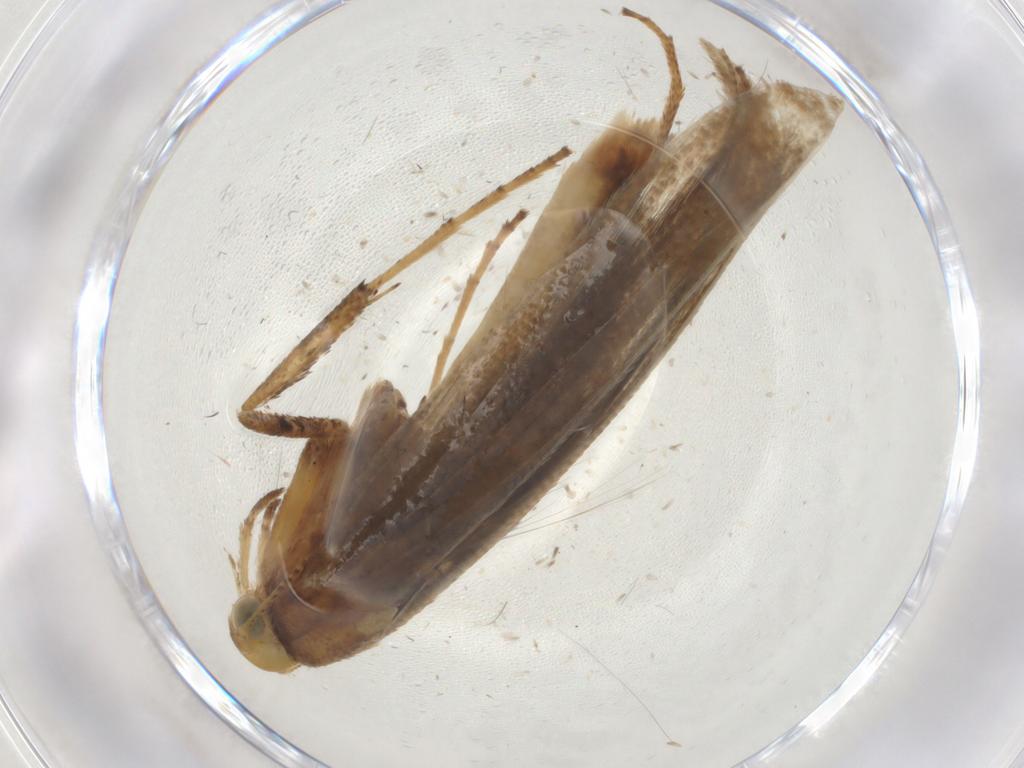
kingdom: Animalia
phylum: Arthropoda
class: Insecta
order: Lepidoptera
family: Gracillariidae
